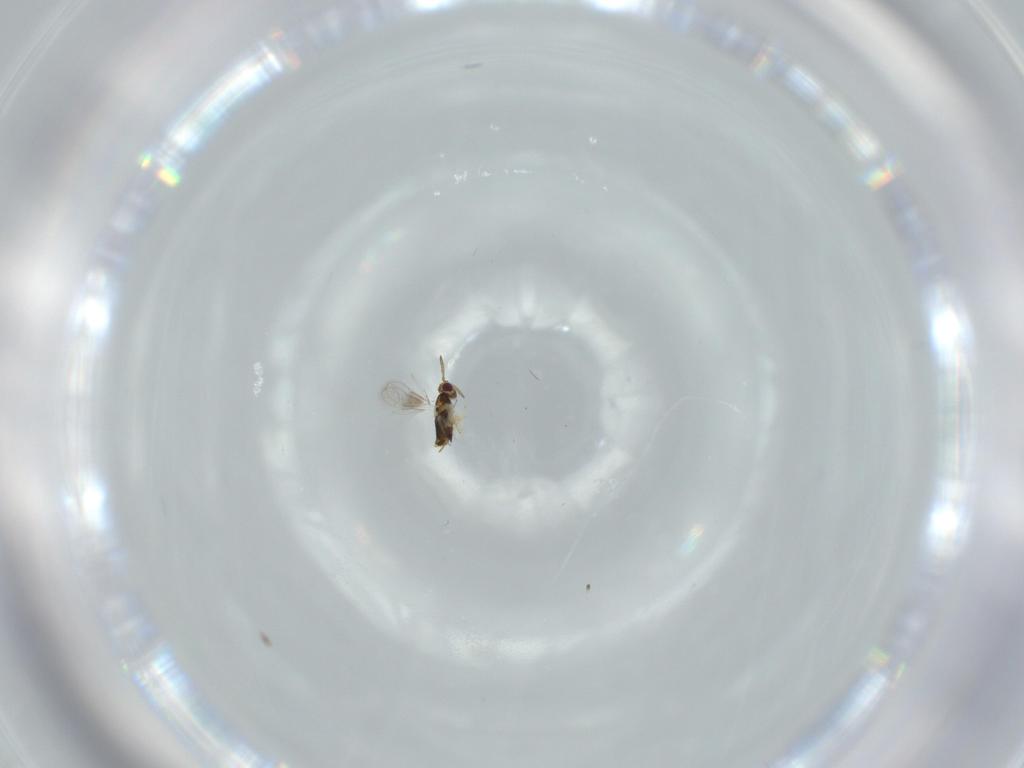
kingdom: Animalia
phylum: Arthropoda
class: Insecta
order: Hymenoptera
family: Aphelinidae
